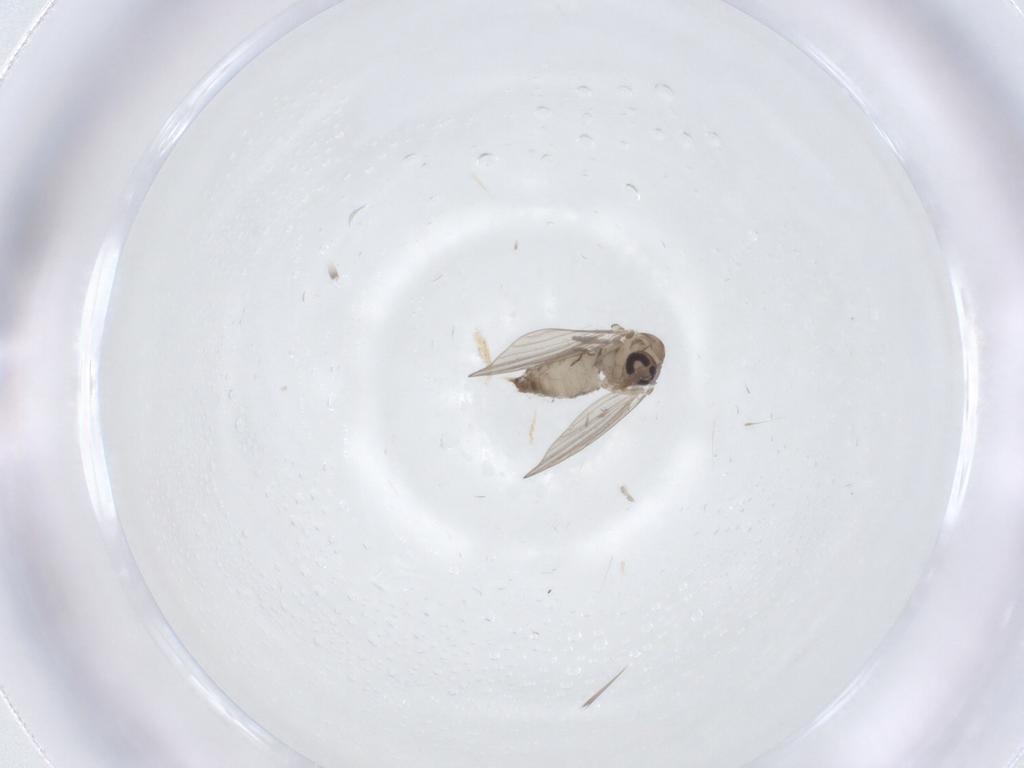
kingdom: Animalia
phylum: Arthropoda
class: Insecta
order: Diptera
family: Psychodidae
